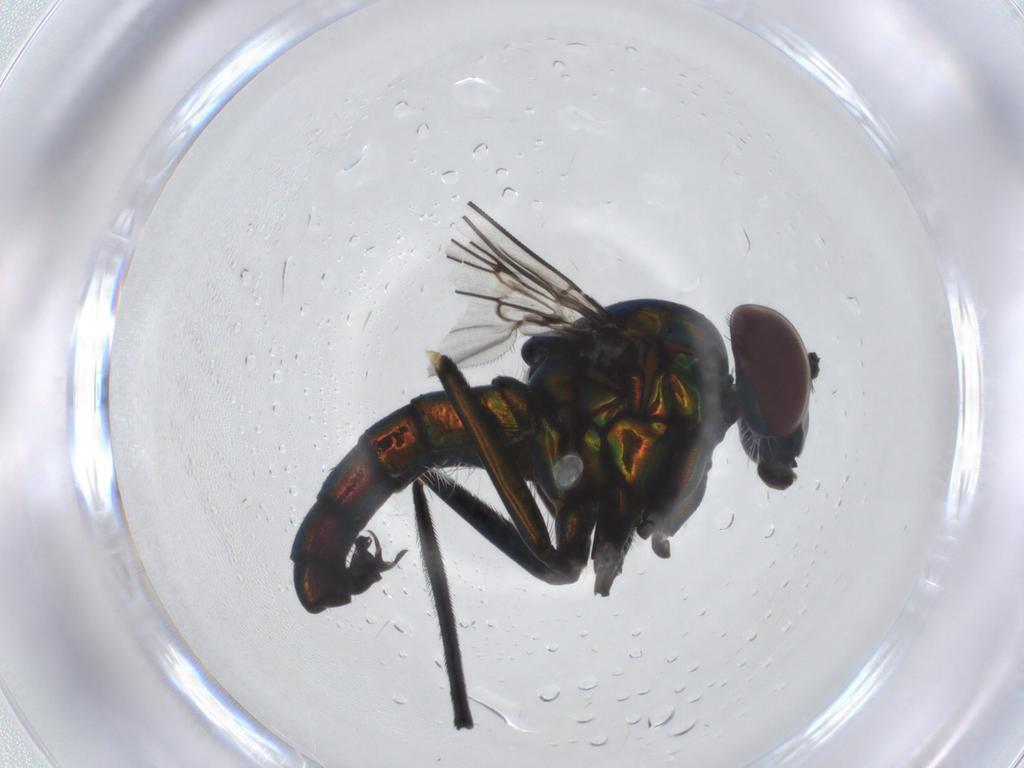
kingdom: Animalia
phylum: Arthropoda
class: Insecta
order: Diptera
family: Dolichopodidae
